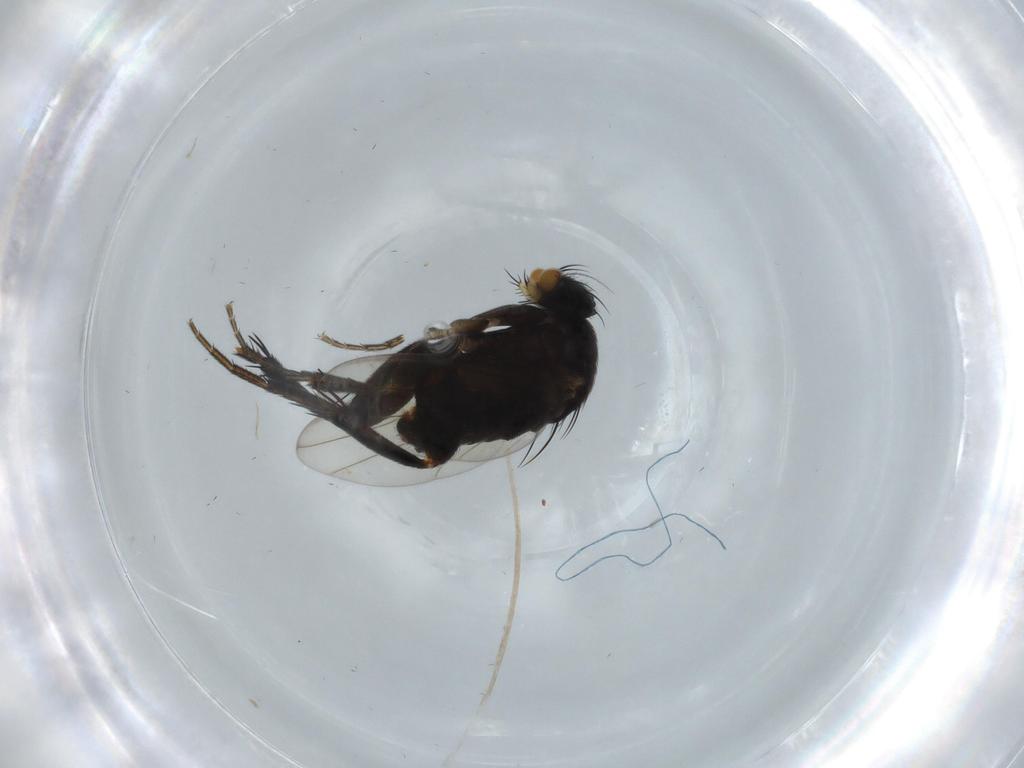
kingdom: Animalia
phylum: Arthropoda
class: Insecta
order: Diptera
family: Phoridae
